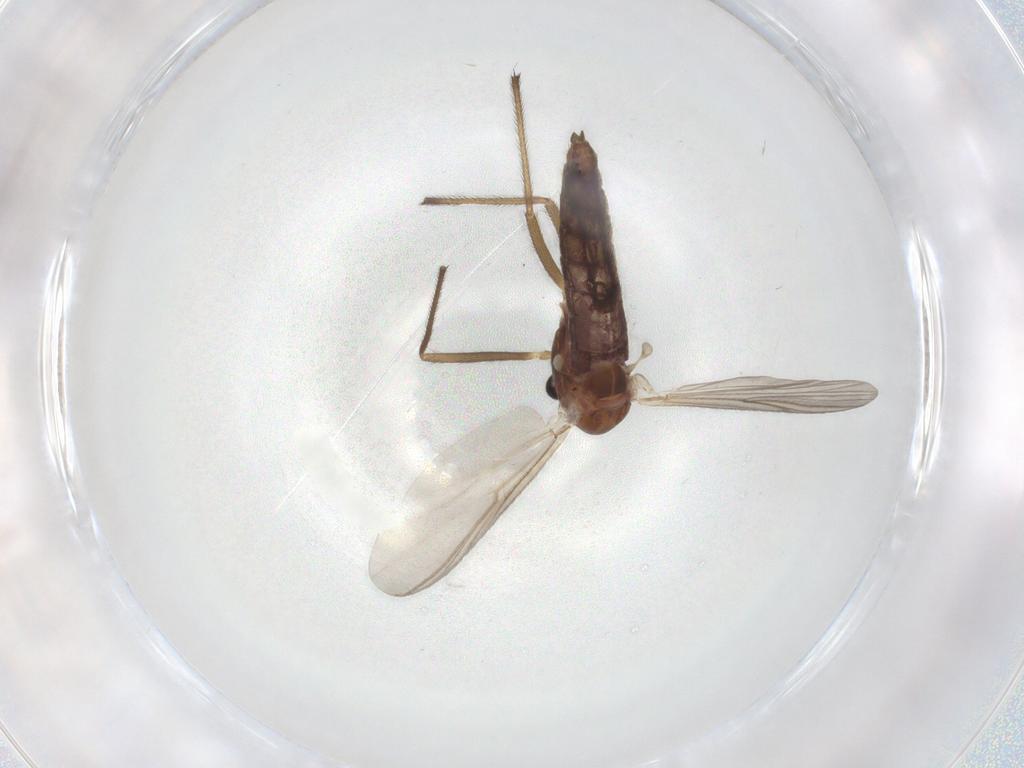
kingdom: Animalia
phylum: Arthropoda
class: Insecta
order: Diptera
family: Chironomidae
